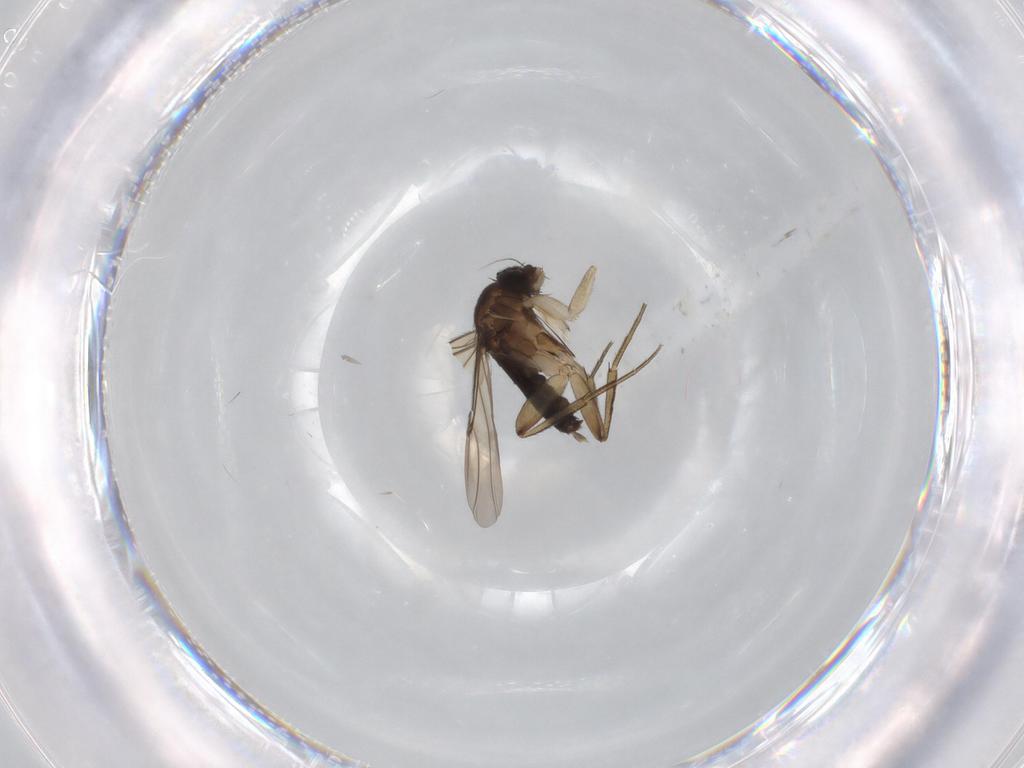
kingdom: Animalia
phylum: Arthropoda
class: Insecta
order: Diptera
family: Phoridae
